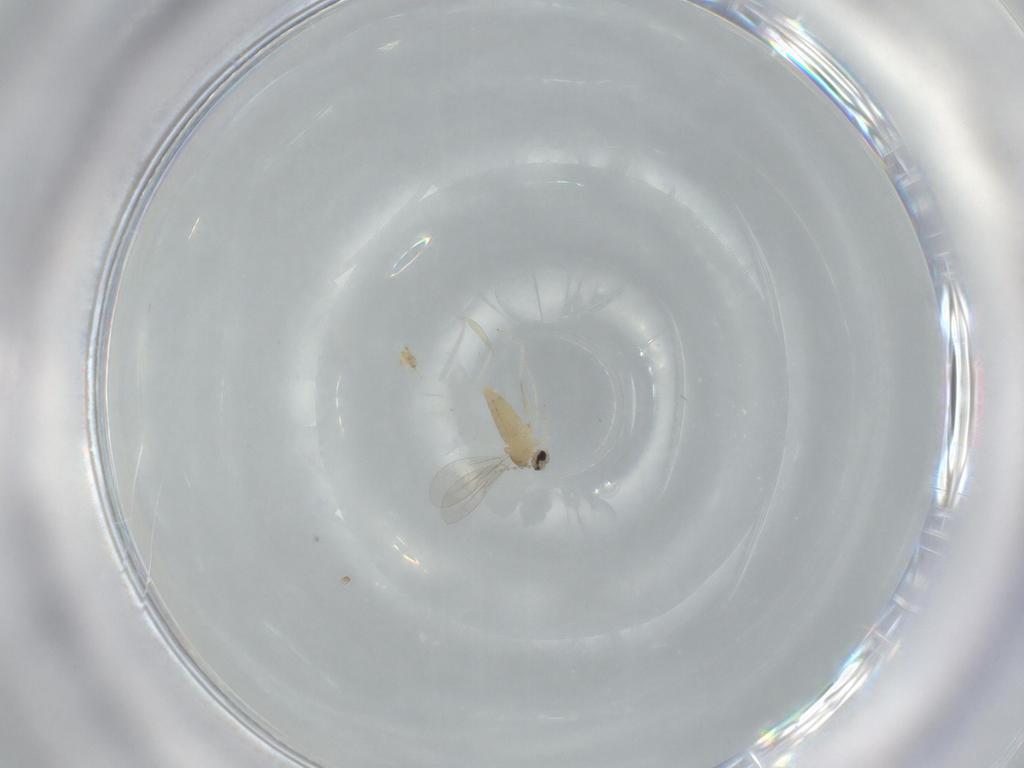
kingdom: Animalia
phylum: Arthropoda
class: Insecta
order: Diptera
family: Cecidomyiidae
